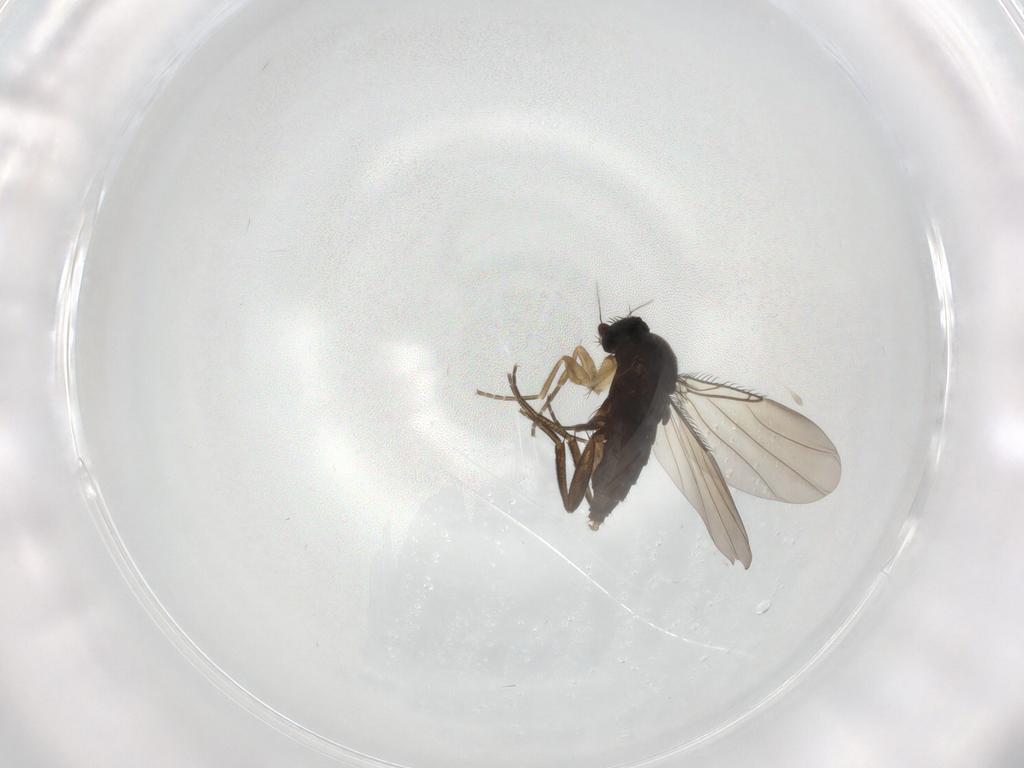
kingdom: Animalia
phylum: Arthropoda
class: Insecta
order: Diptera
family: Phoridae
